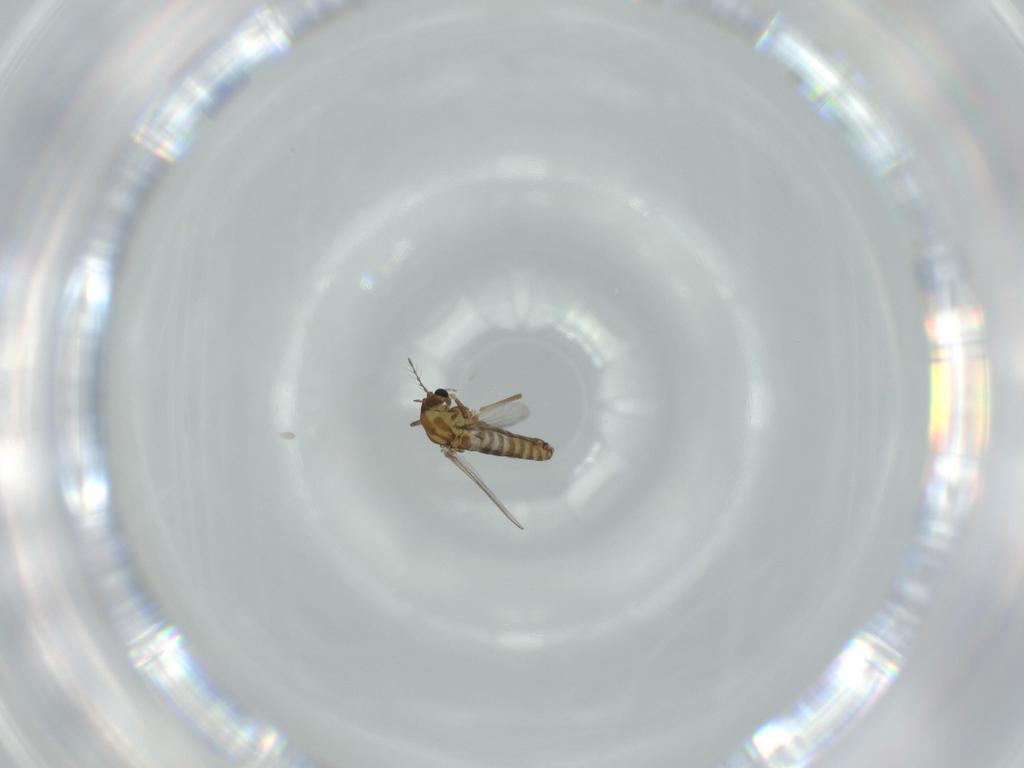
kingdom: Animalia
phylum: Arthropoda
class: Insecta
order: Diptera
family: Chironomidae
